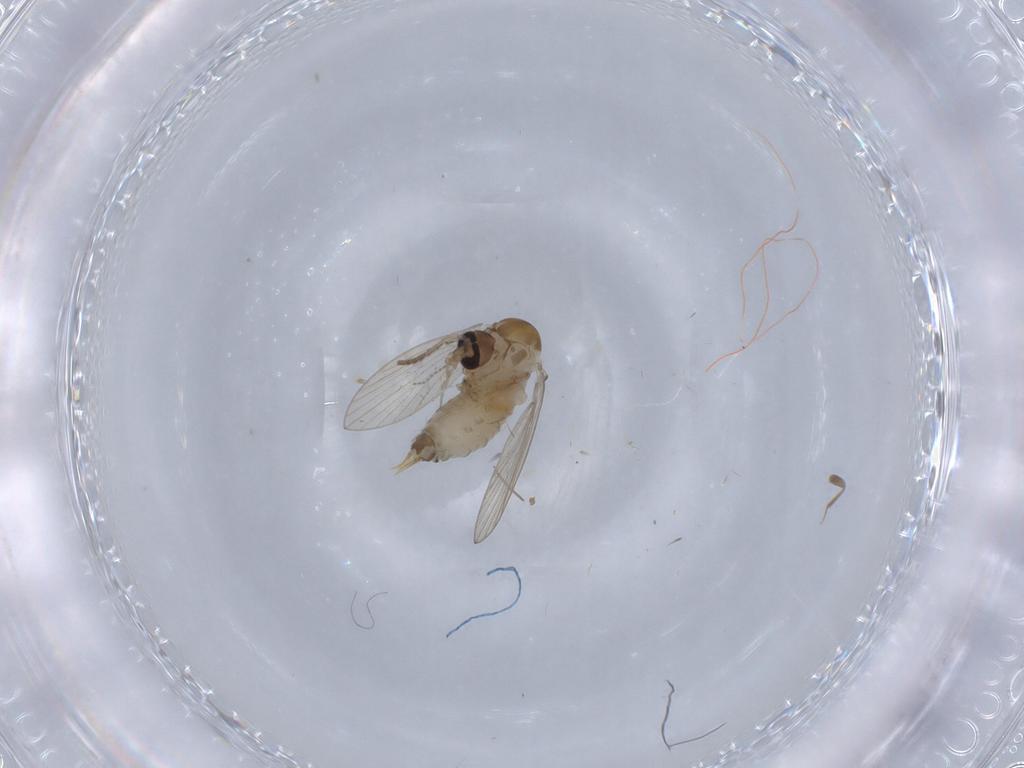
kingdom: Animalia
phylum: Arthropoda
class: Insecta
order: Diptera
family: Psychodidae
